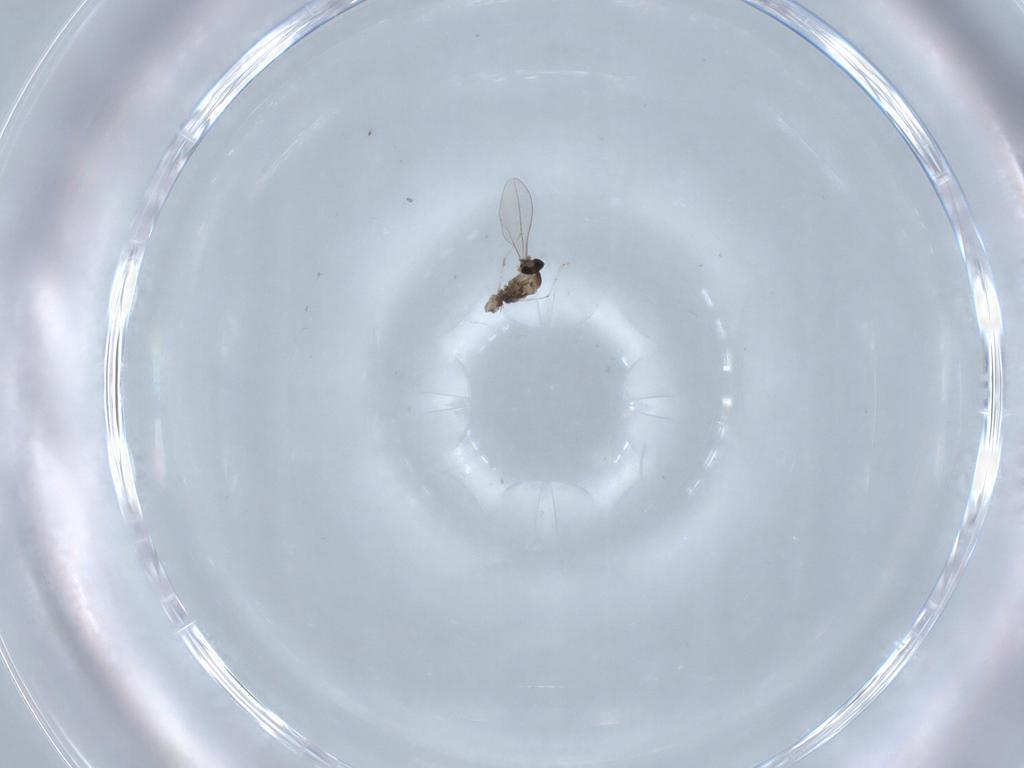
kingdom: Animalia
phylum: Arthropoda
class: Insecta
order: Diptera
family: Cecidomyiidae
